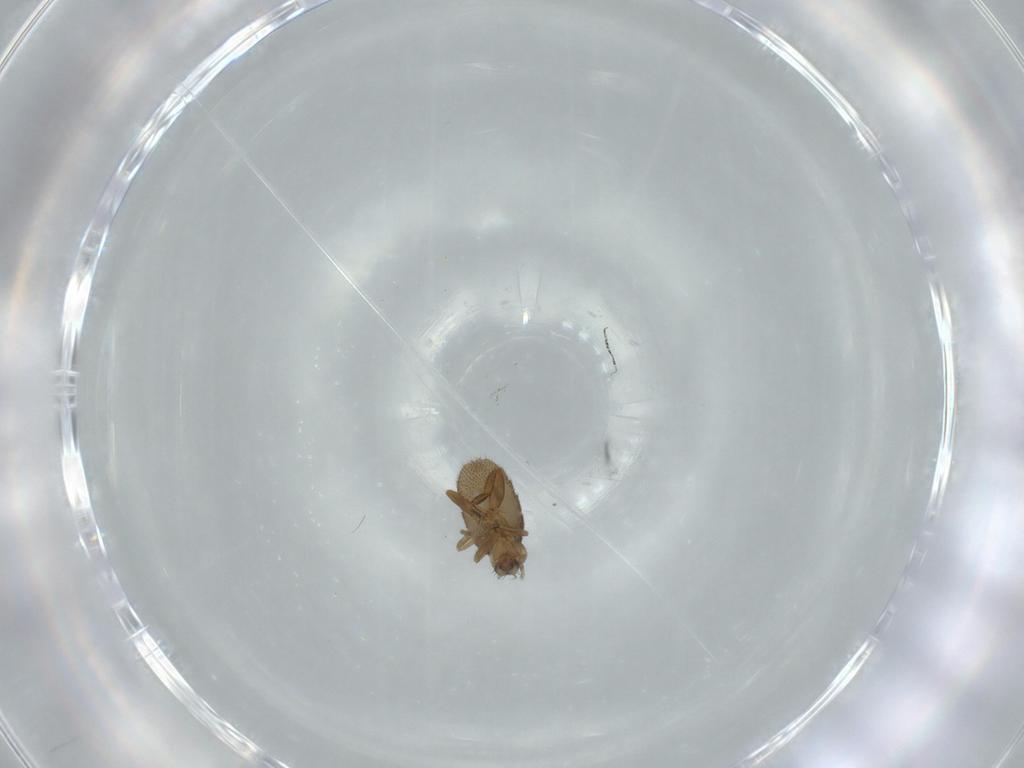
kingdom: Animalia
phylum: Arthropoda
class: Insecta
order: Diptera
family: Phoridae
